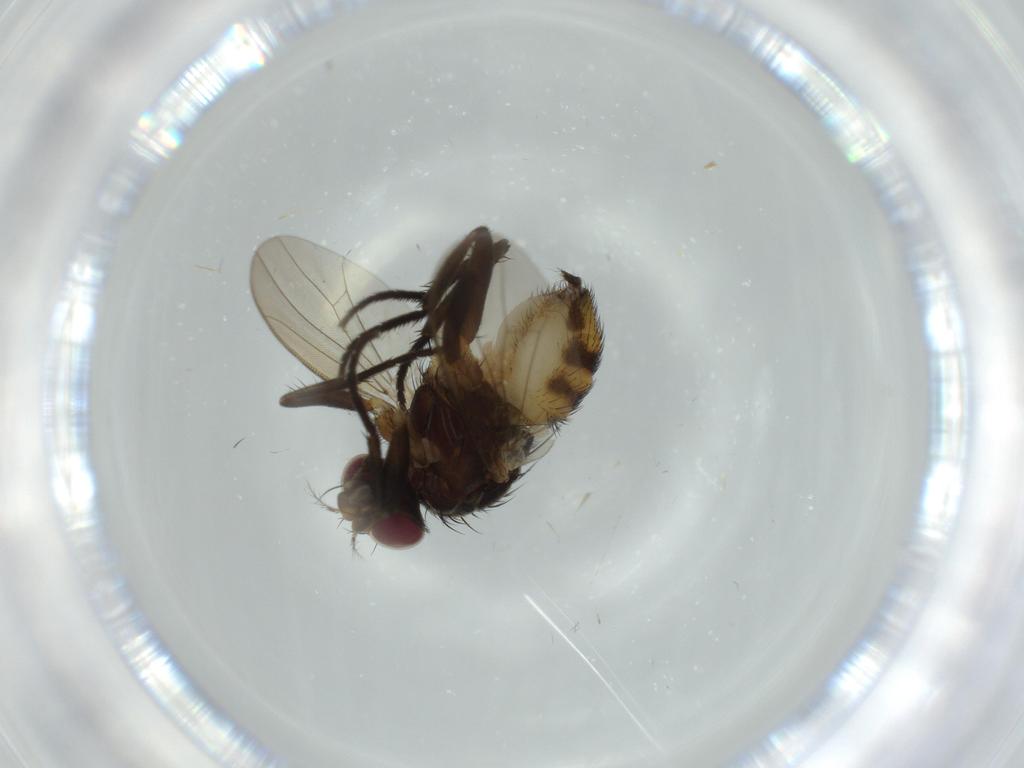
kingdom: Animalia
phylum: Arthropoda
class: Insecta
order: Diptera
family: Anthomyiidae
